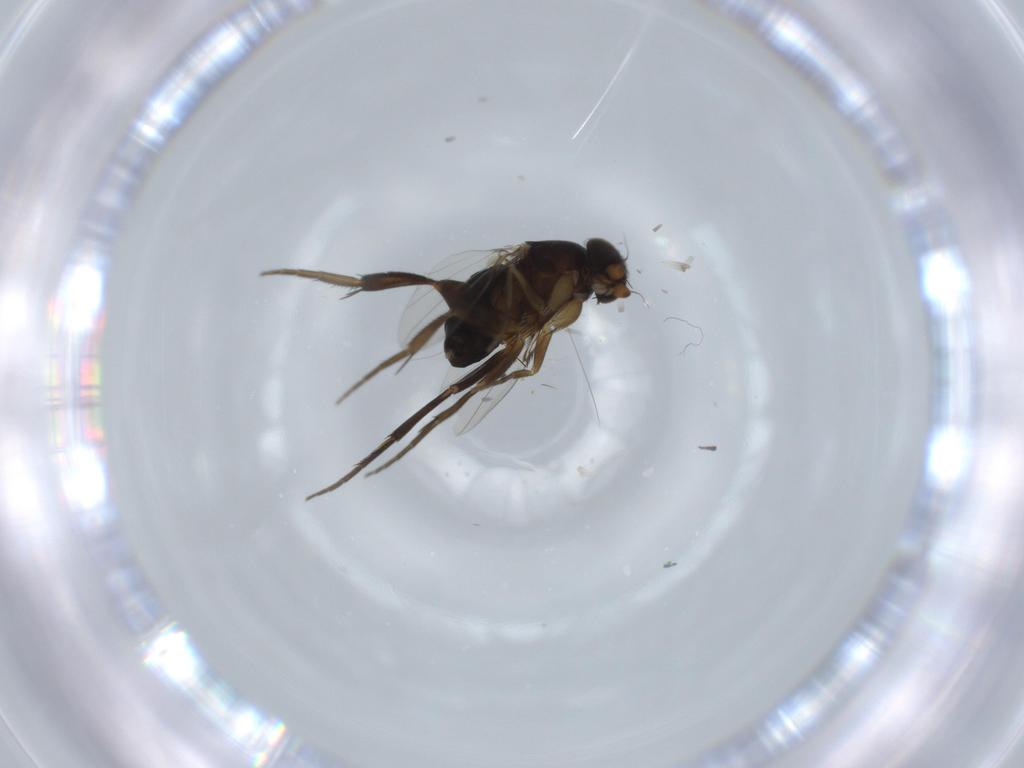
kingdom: Animalia
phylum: Arthropoda
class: Insecta
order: Diptera
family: Phoridae
